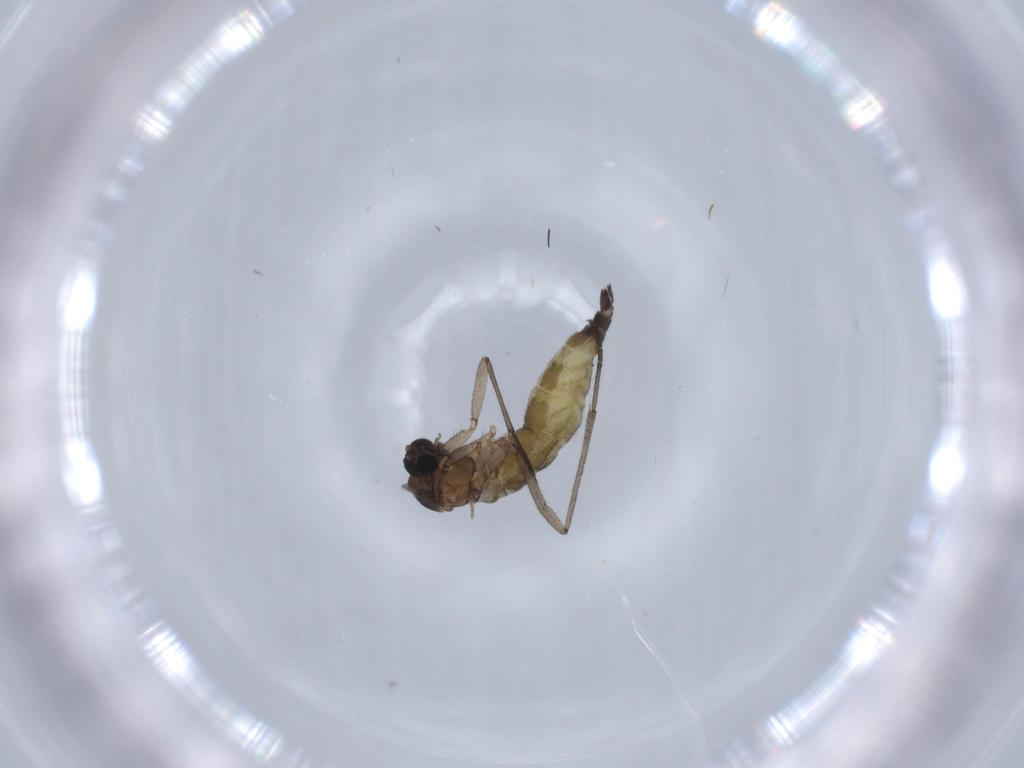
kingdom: Animalia
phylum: Arthropoda
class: Insecta
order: Diptera
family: Sciaridae
